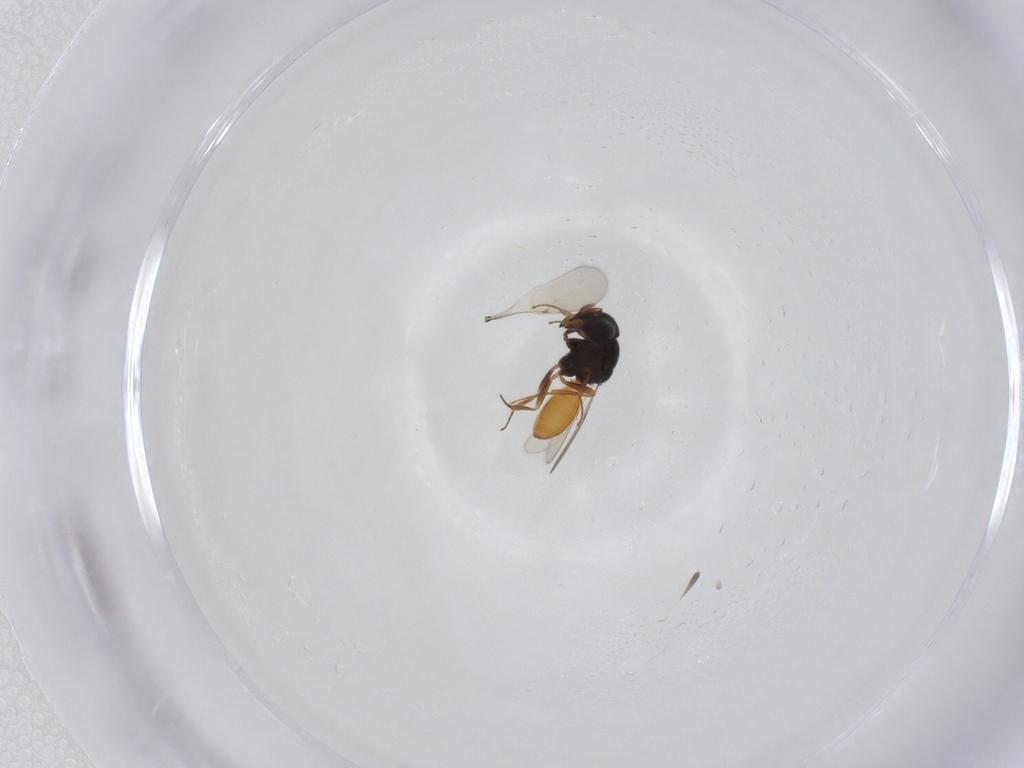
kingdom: Animalia
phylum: Arthropoda
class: Insecta
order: Hymenoptera
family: Scelionidae
